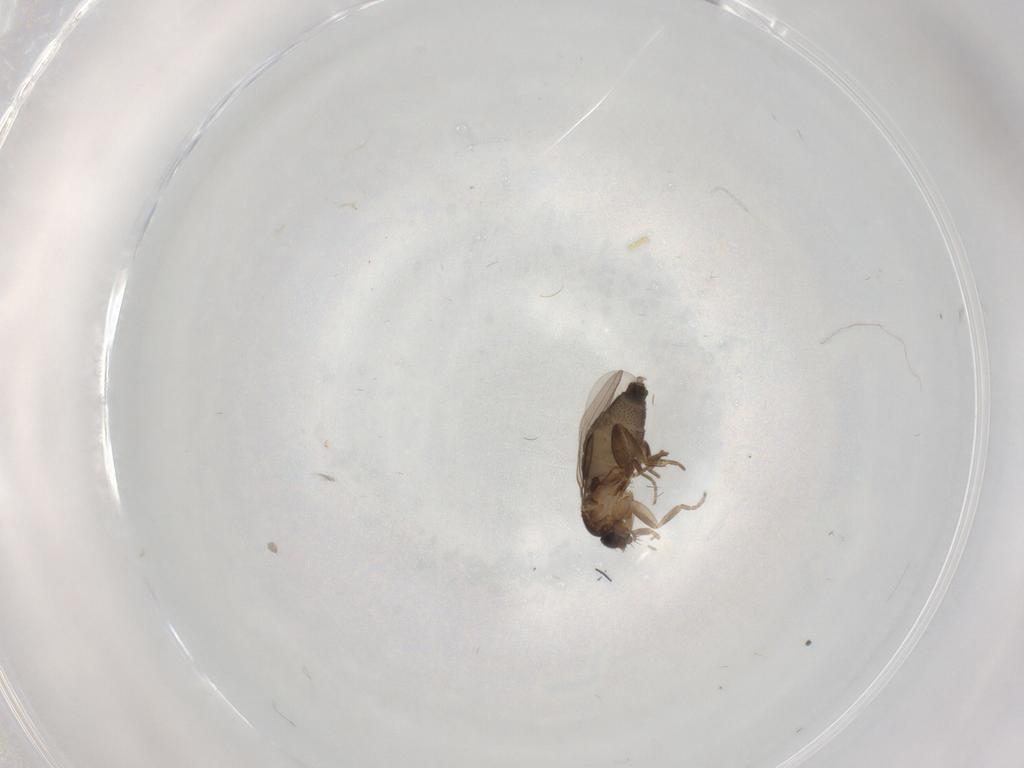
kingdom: Animalia
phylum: Arthropoda
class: Insecta
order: Diptera
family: Phoridae
